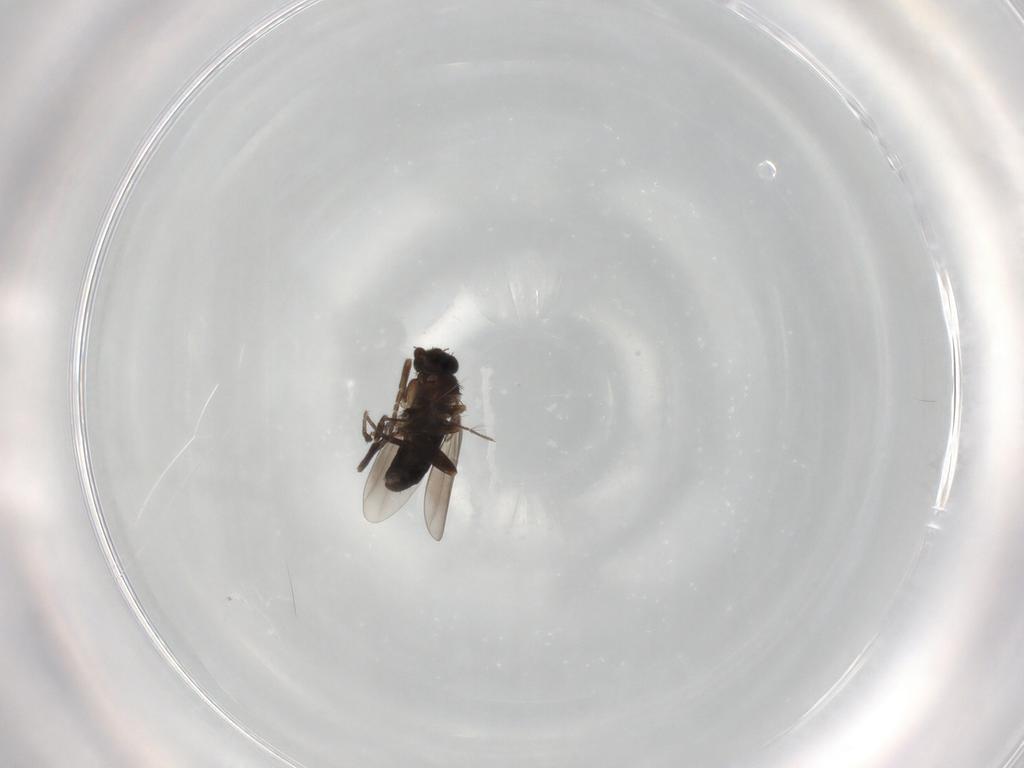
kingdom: Animalia
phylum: Arthropoda
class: Insecta
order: Diptera
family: Culicidae
